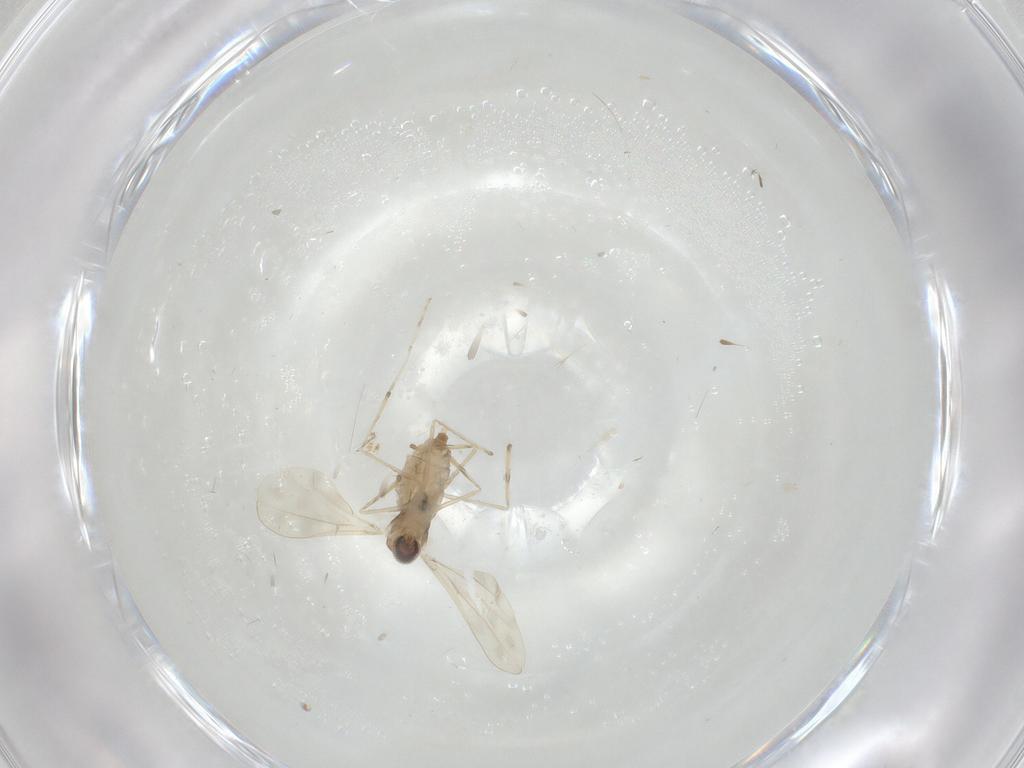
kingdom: Animalia
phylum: Arthropoda
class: Insecta
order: Diptera
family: Cecidomyiidae
